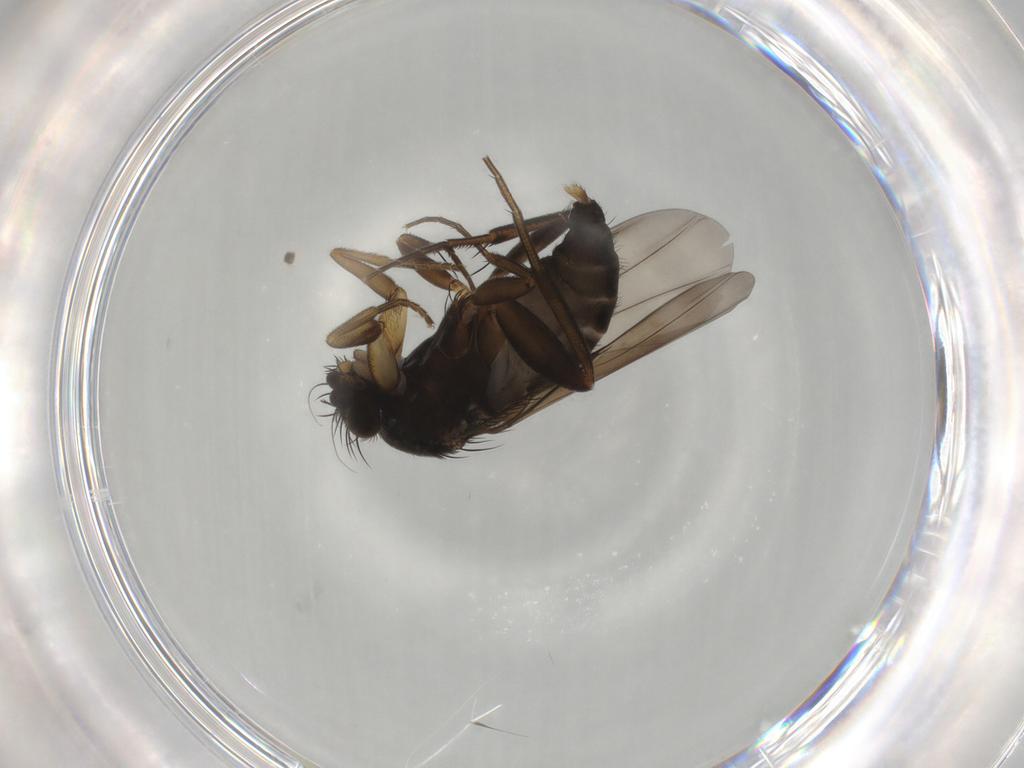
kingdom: Animalia
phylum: Arthropoda
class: Insecta
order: Diptera
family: Phoridae
